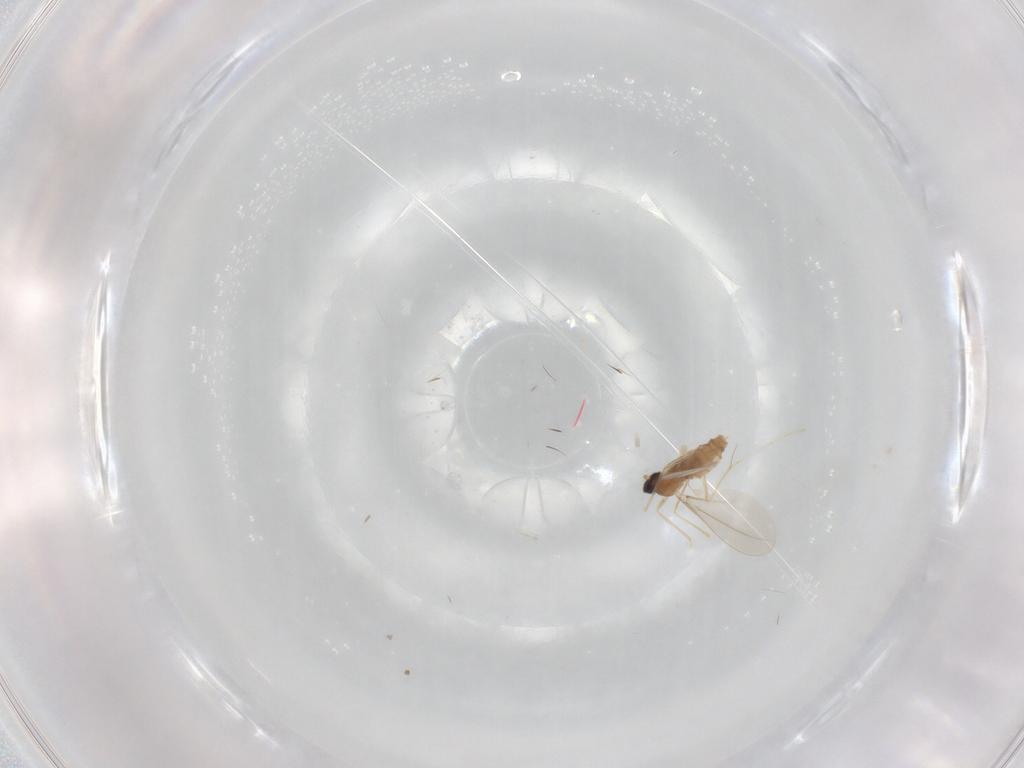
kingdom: Animalia
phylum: Arthropoda
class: Insecta
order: Diptera
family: Cecidomyiidae
